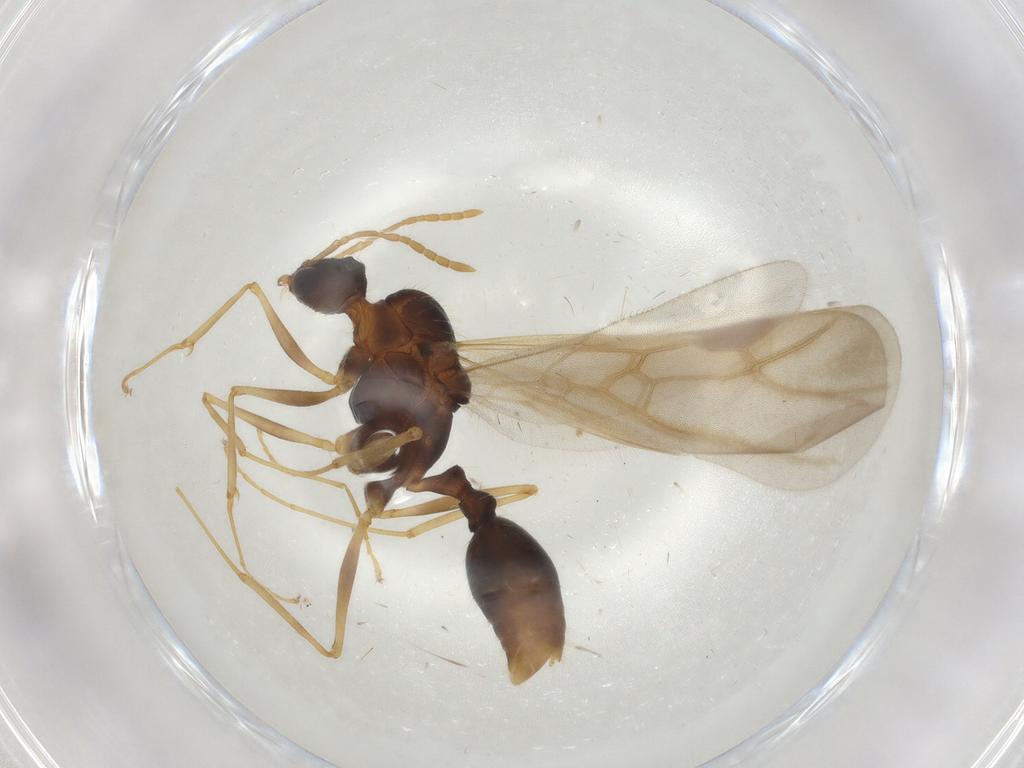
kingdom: Animalia
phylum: Arthropoda
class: Insecta
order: Hymenoptera
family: Formicidae
